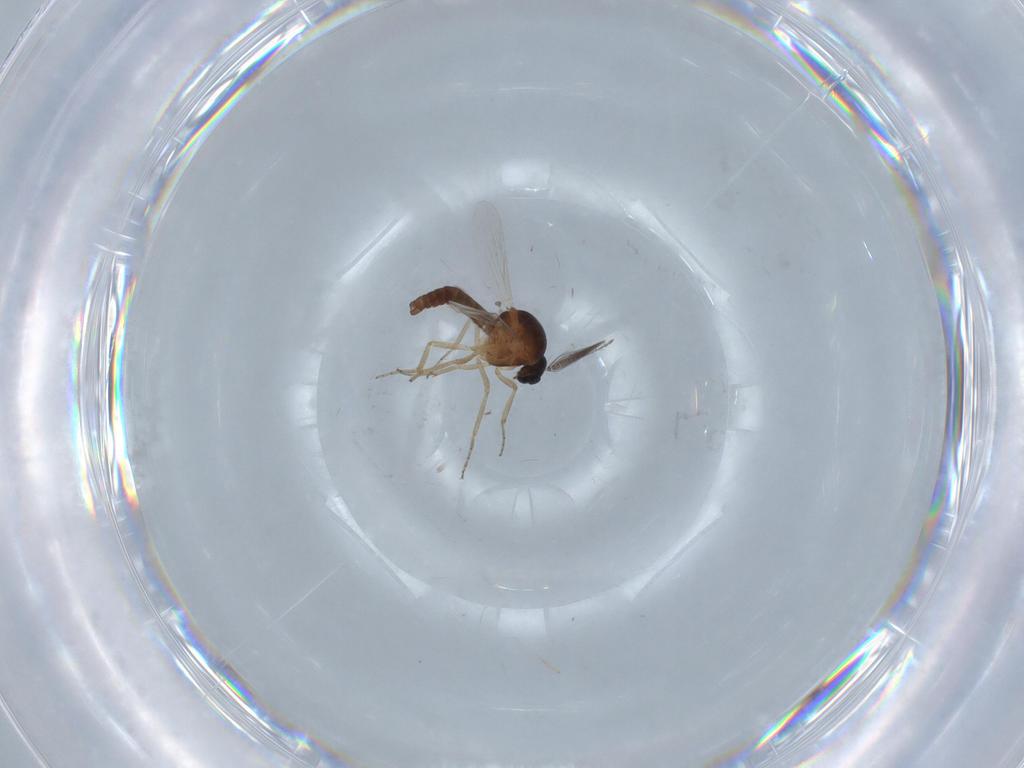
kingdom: Animalia
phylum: Arthropoda
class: Insecta
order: Diptera
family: Ceratopogonidae
